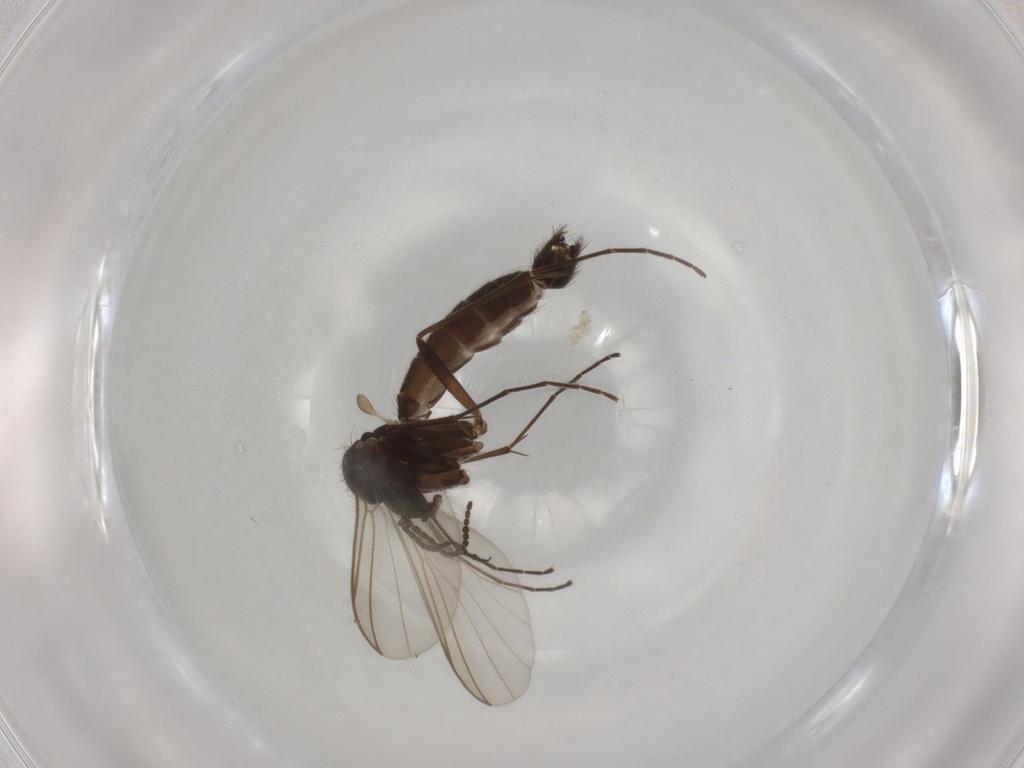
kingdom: Animalia
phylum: Arthropoda
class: Insecta
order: Diptera
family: Mycetophilidae
